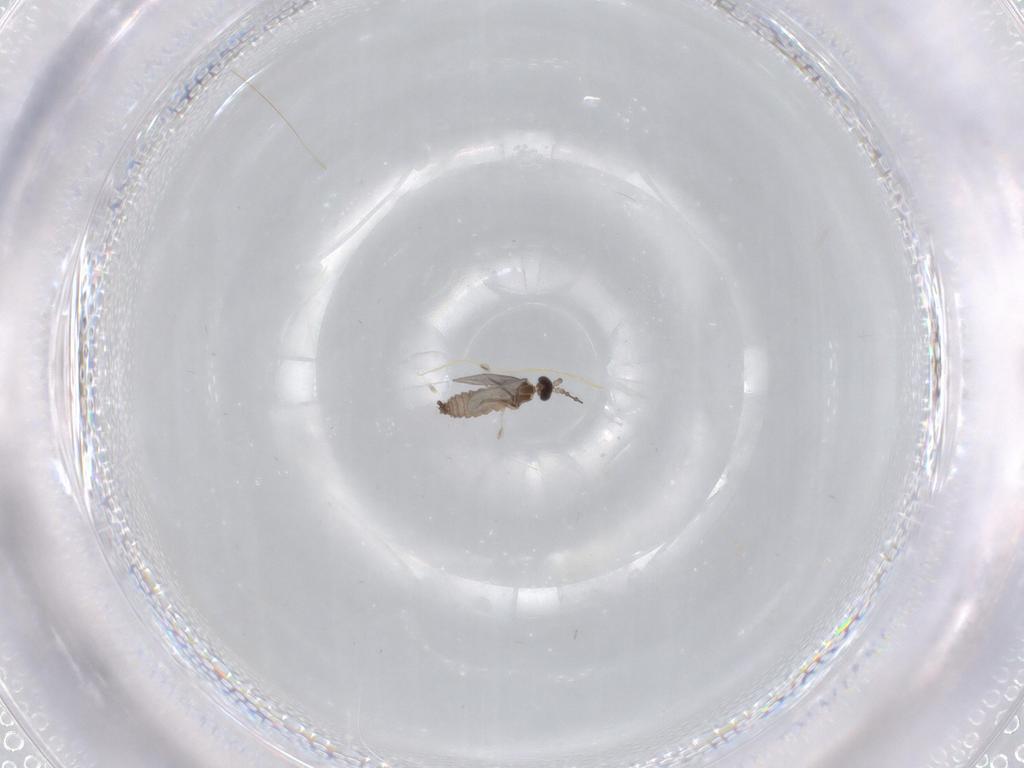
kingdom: Animalia
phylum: Arthropoda
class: Insecta
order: Diptera
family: Cecidomyiidae
